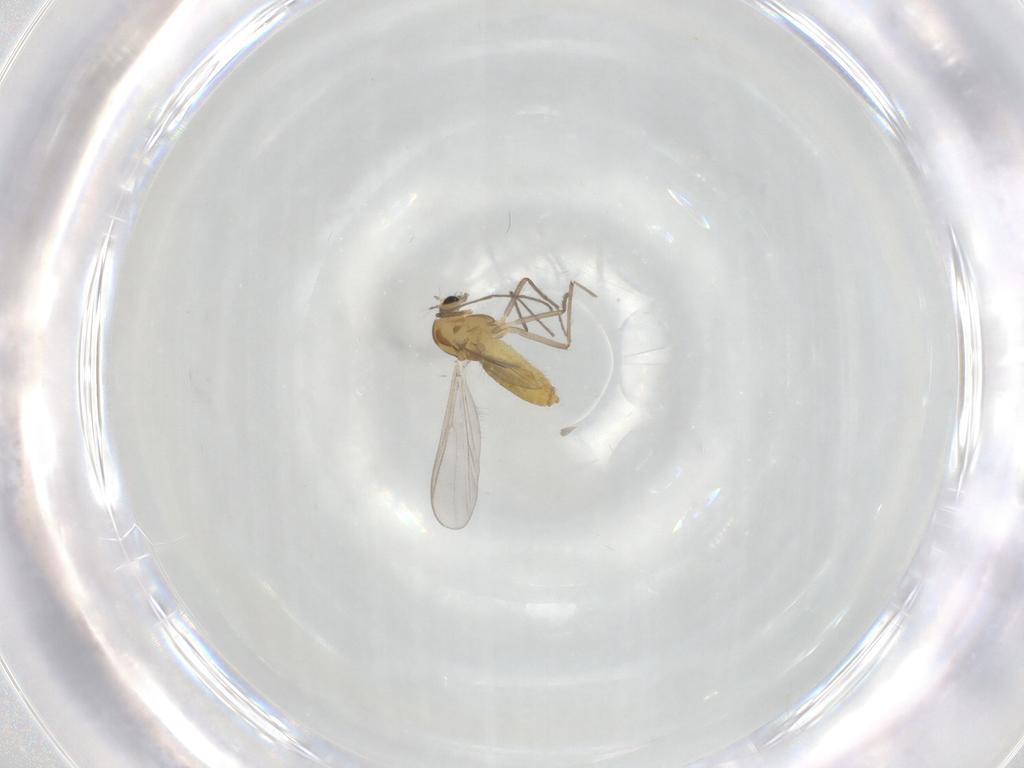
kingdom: Animalia
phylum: Arthropoda
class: Insecta
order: Diptera
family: Chironomidae
